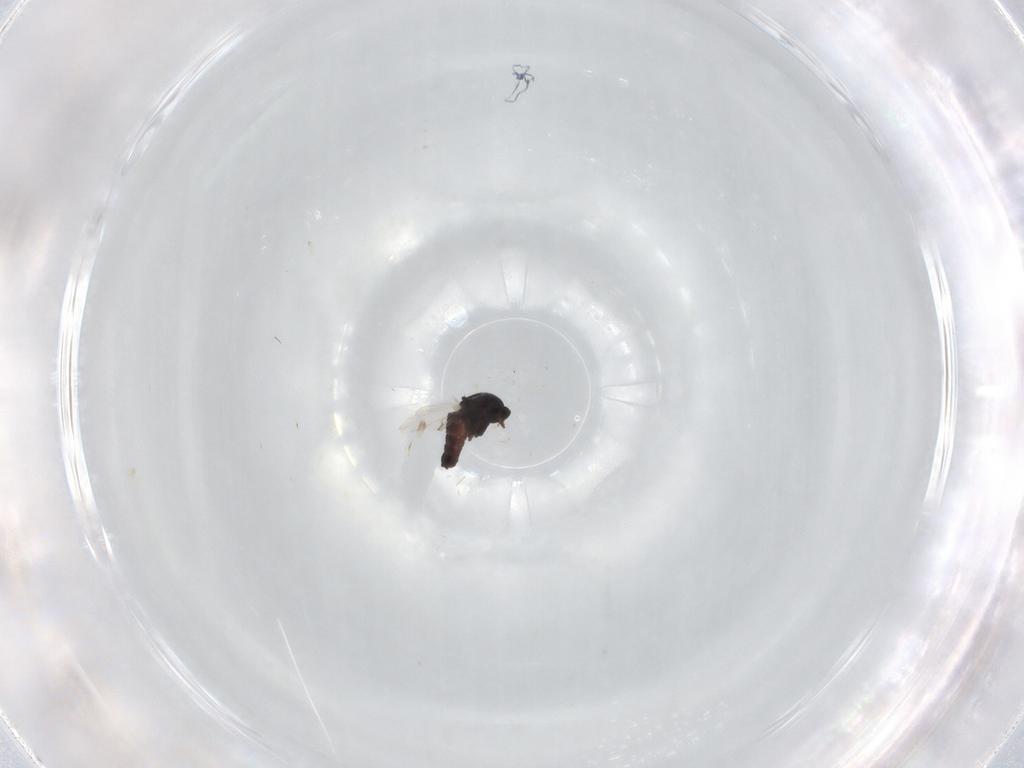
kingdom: Animalia
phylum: Arthropoda
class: Insecta
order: Diptera
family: Ceratopogonidae
